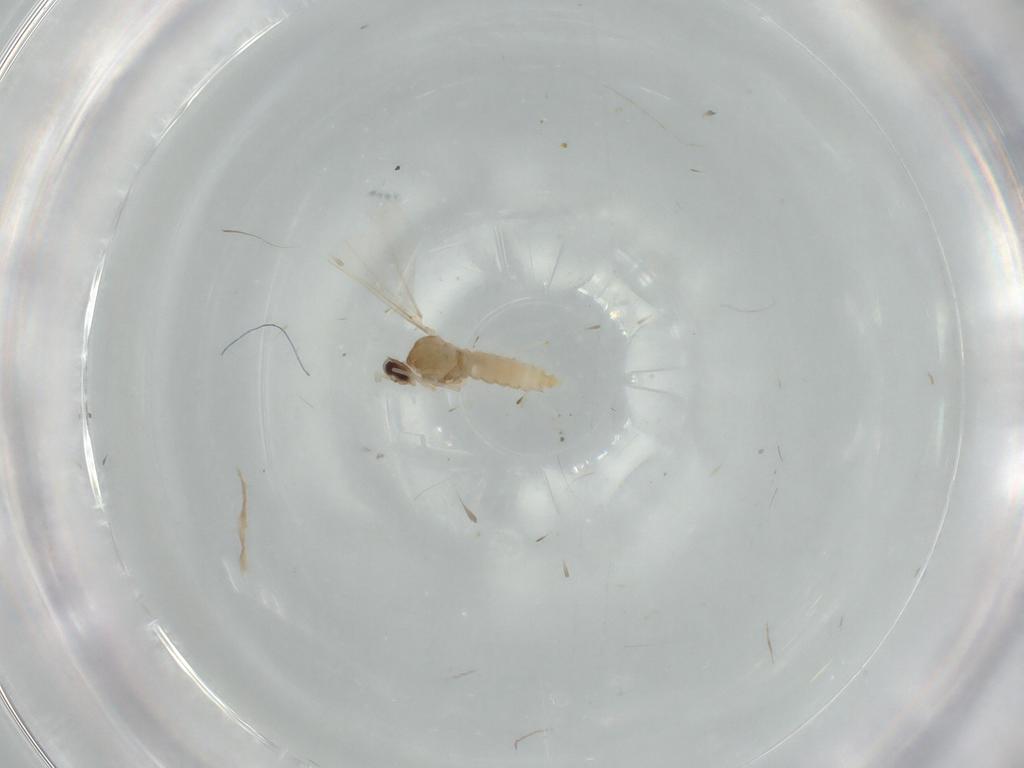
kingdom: Animalia
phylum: Arthropoda
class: Insecta
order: Diptera
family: Cecidomyiidae
